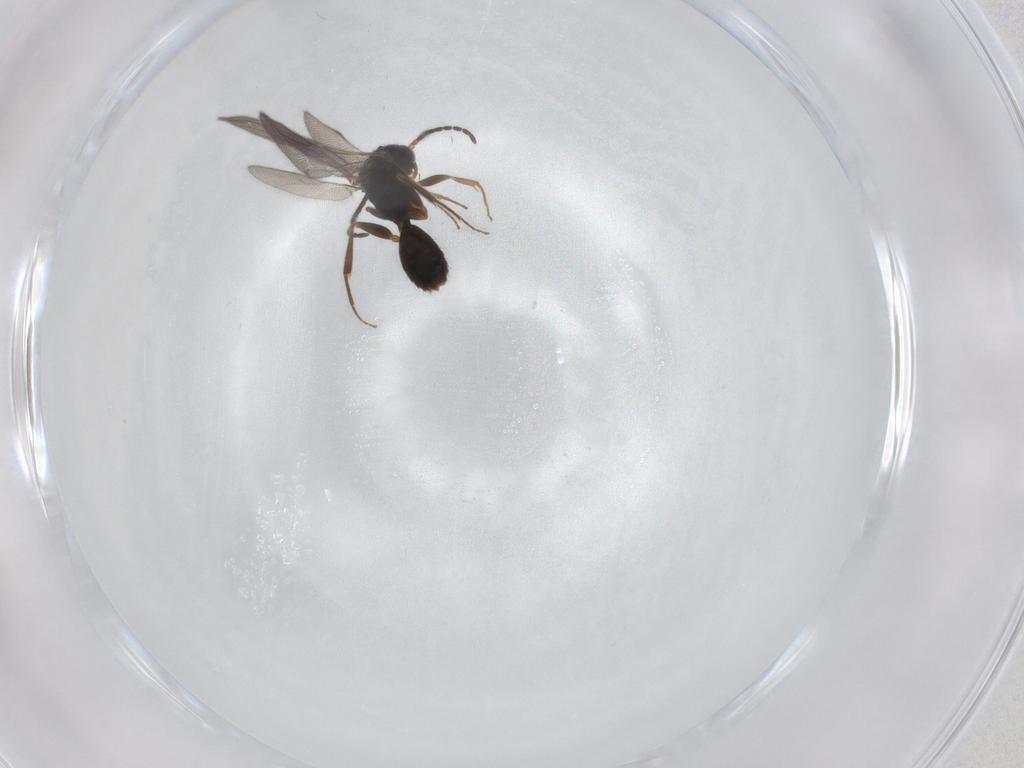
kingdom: Animalia
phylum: Arthropoda
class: Insecta
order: Hymenoptera
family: Bethylidae
